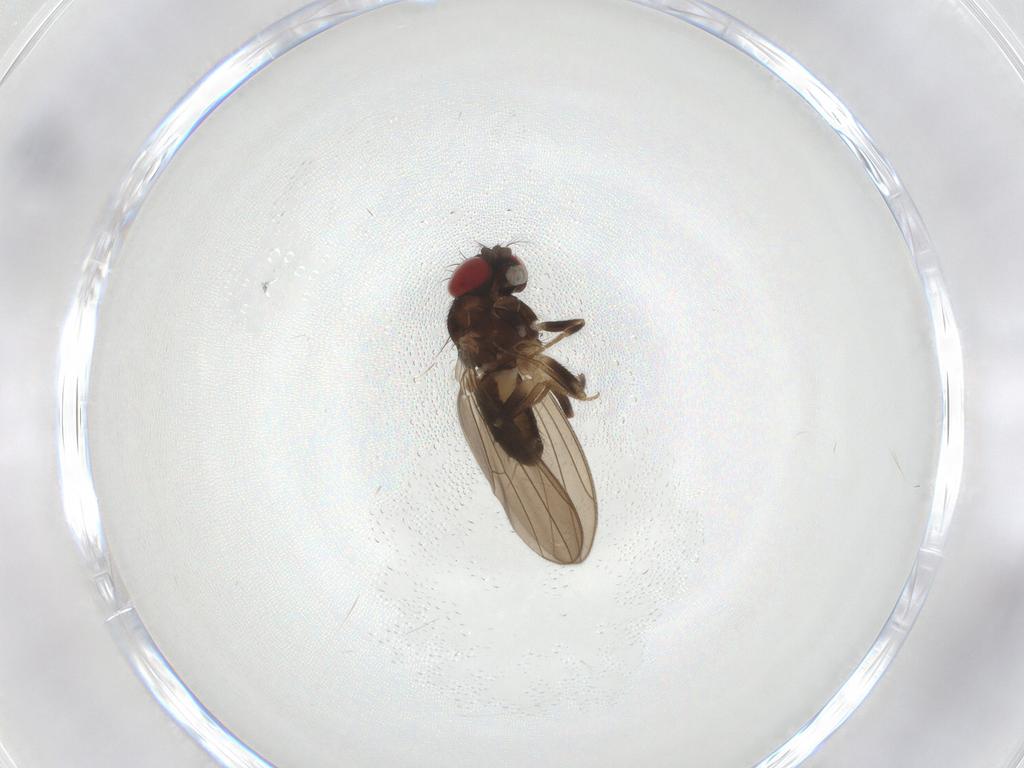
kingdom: Animalia
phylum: Arthropoda
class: Insecta
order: Diptera
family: Drosophilidae
